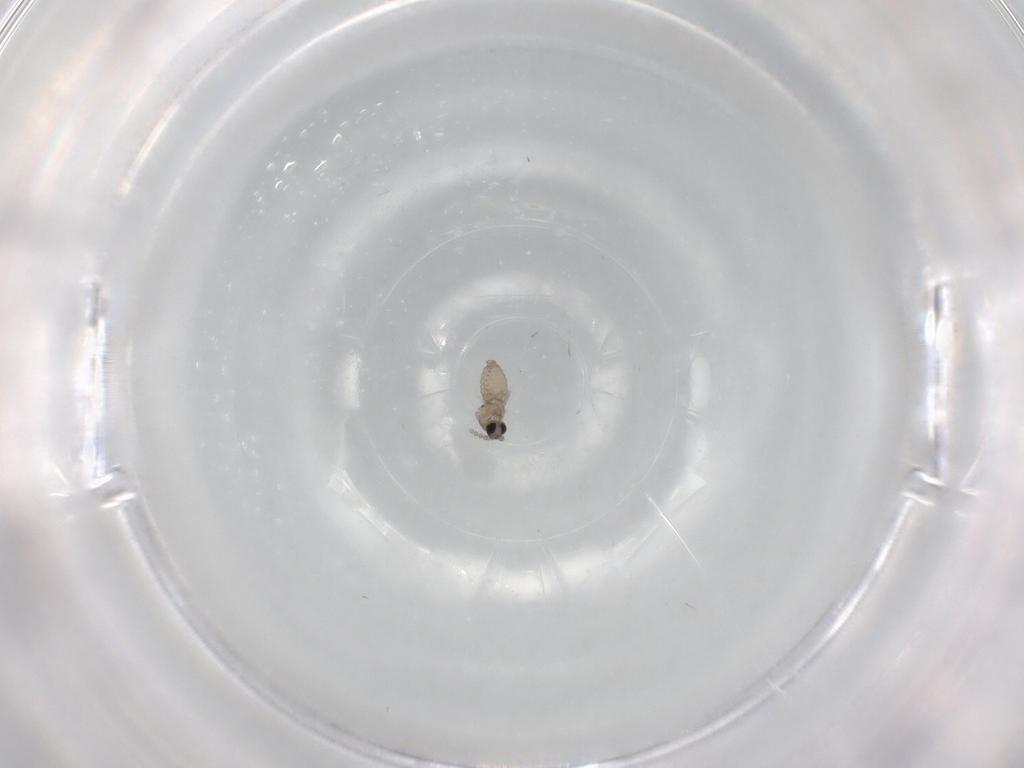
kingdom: Animalia
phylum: Arthropoda
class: Insecta
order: Diptera
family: Cecidomyiidae
